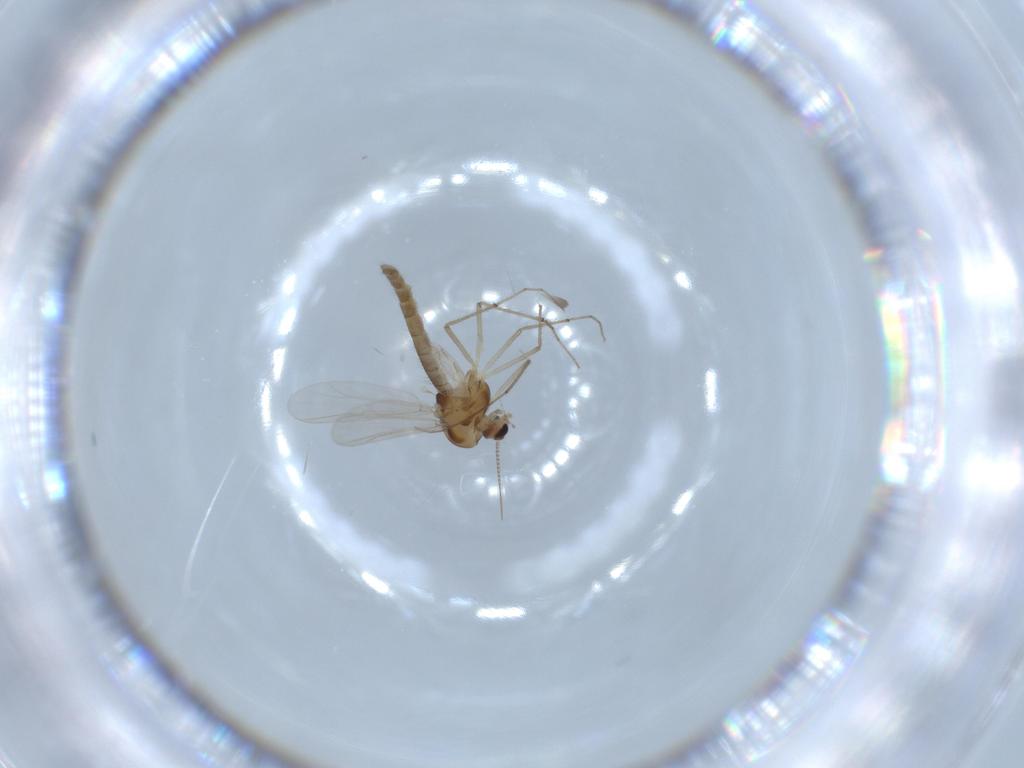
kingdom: Animalia
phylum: Arthropoda
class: Insecta
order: Diptera
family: Chironomidae
